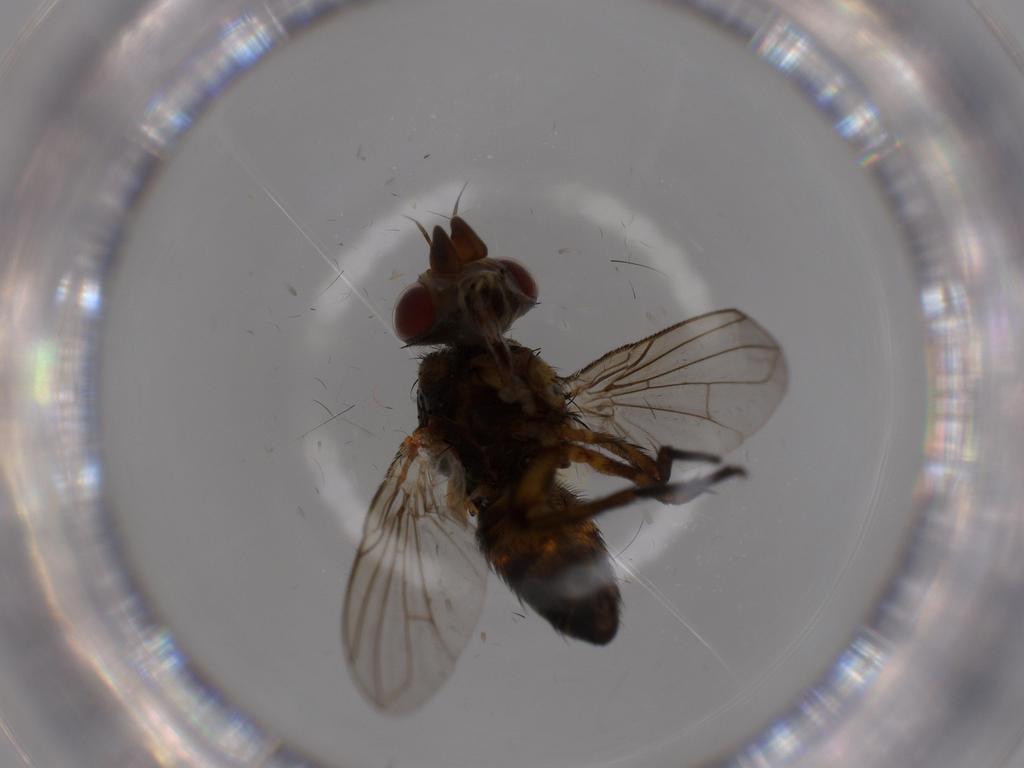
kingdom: Animalia
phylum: Arthropoda
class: Insecta
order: Diptera
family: Tachinidae
